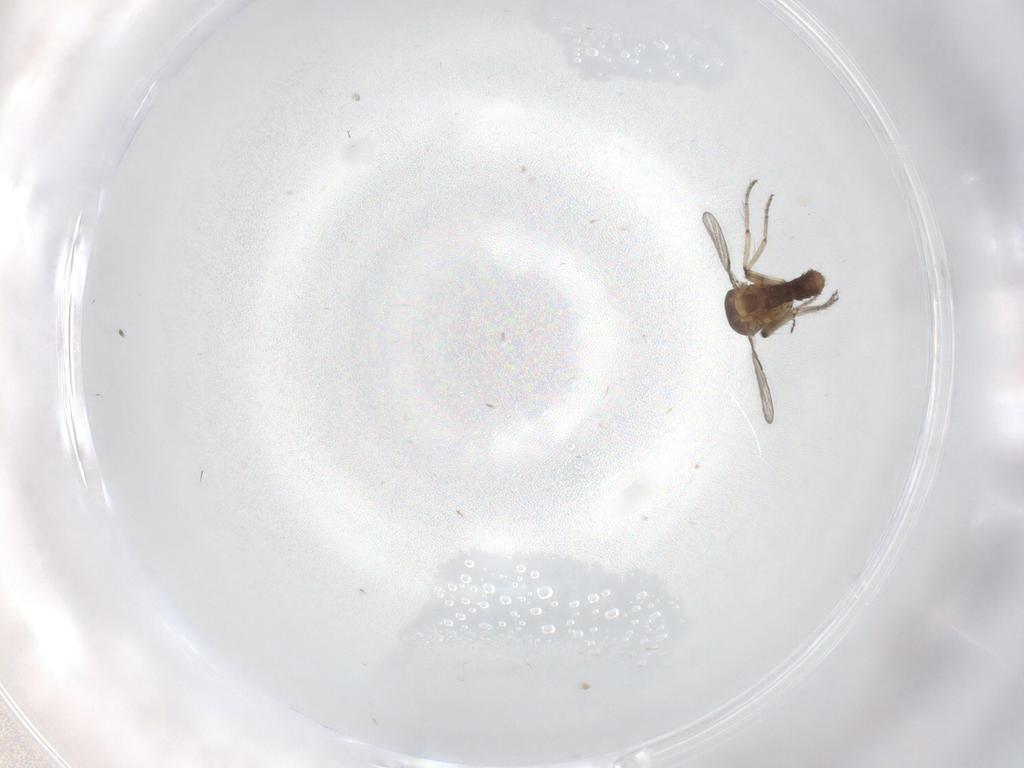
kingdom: Animalia
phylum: Arthropoda
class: Insecta
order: Diptera
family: Ceratopogonidae
